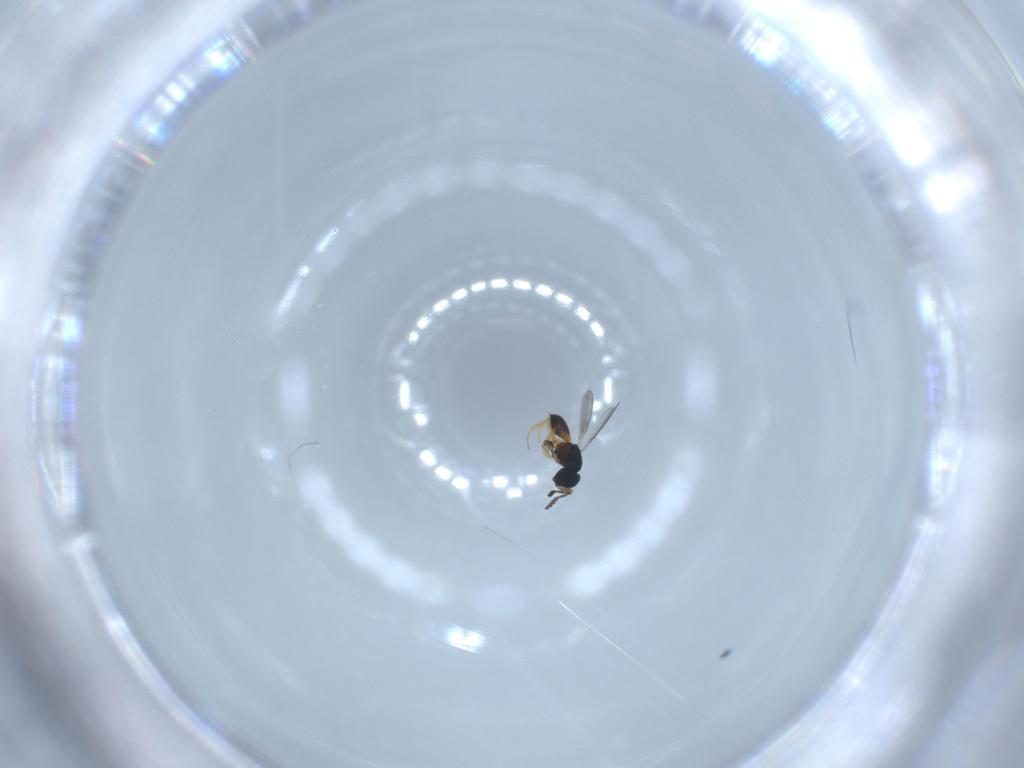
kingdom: Animalia
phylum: Arthropoda
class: Insecta
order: Hymenoptera
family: Scelionidae
